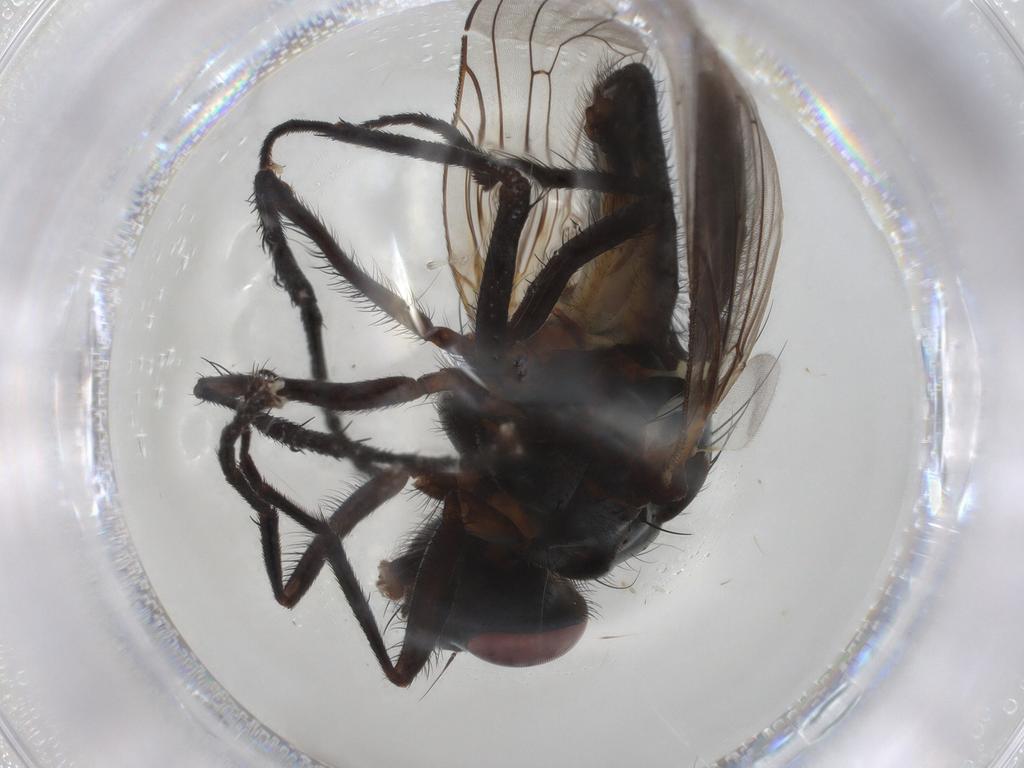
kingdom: Animalia
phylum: Arthropoda
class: Insecta
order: Diptera
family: Anthomyiidae
